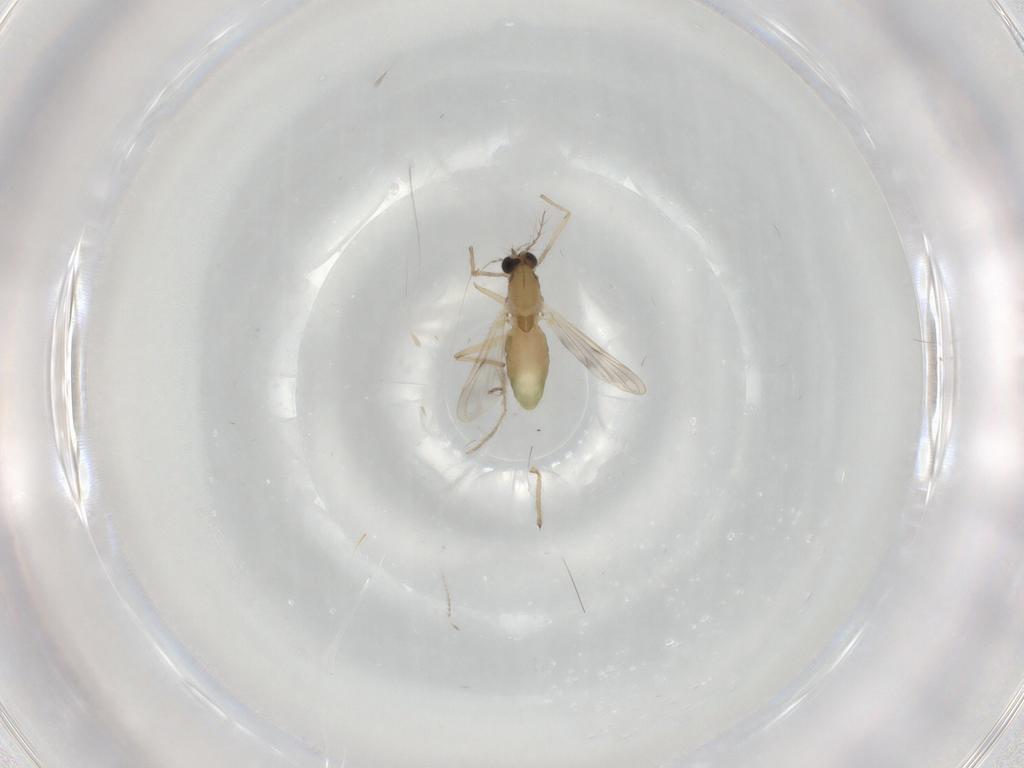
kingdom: Animalia
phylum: Arthropoda
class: Insecta
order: Diptera
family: Chironomidae
